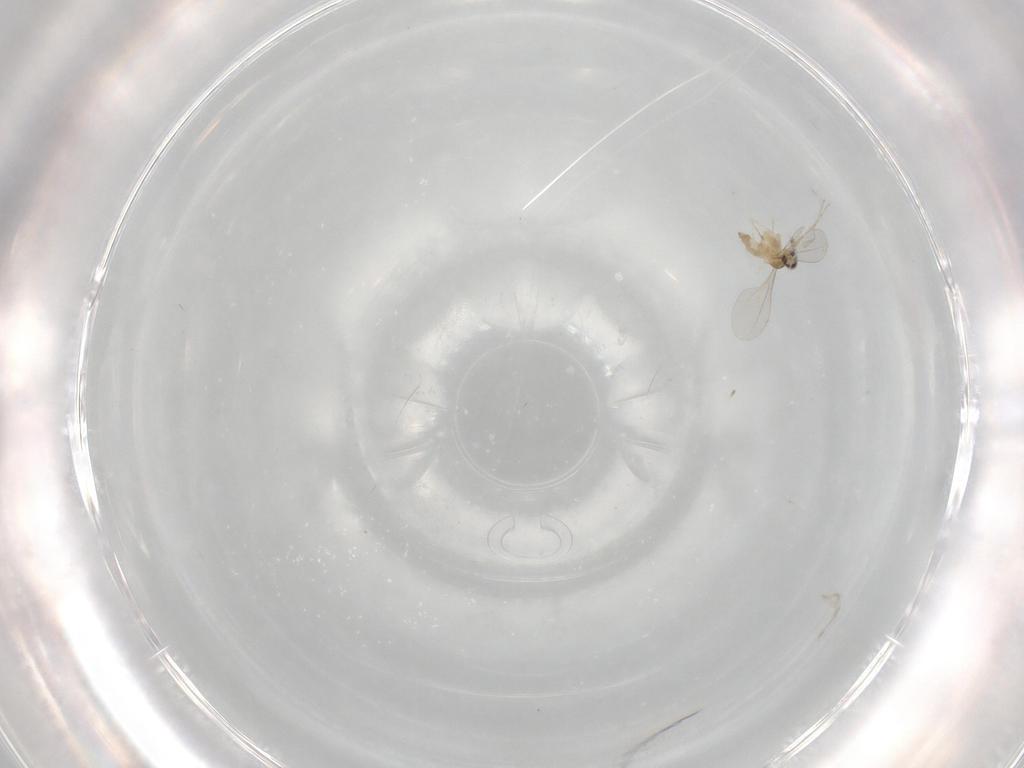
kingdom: Animalia
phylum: Arthropoda
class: Insecta
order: Diptera
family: Cecidomyiidae
